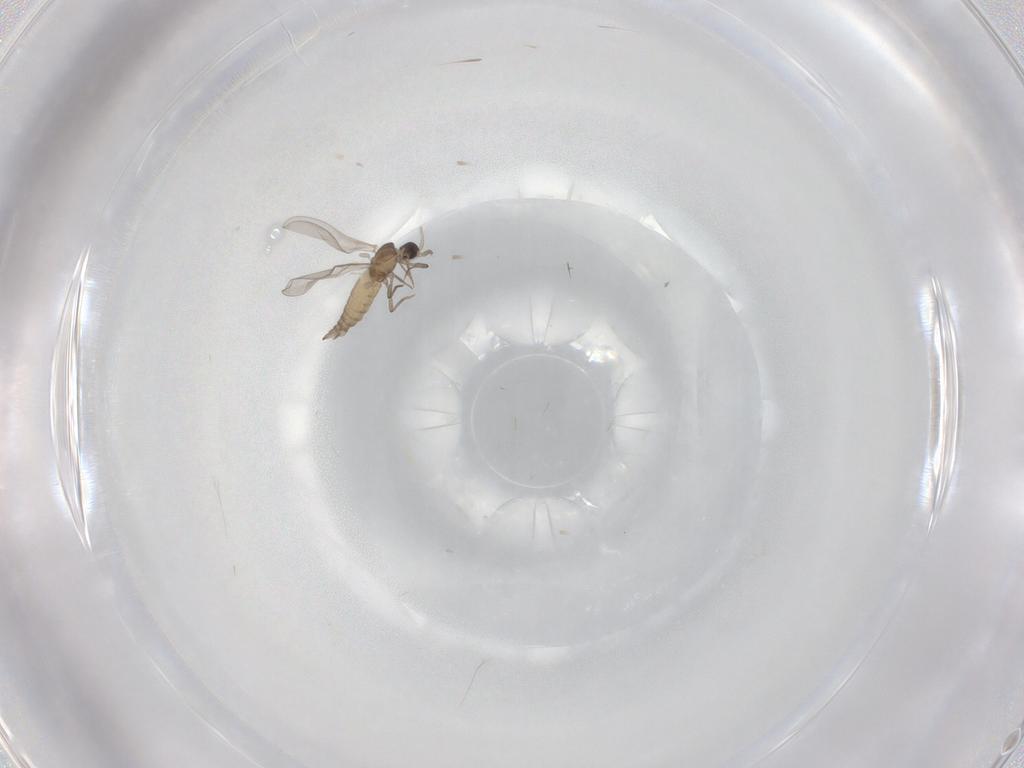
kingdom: Animalia
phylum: Arthropoda
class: Insecta
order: Diptera
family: Cecidomyiidae
